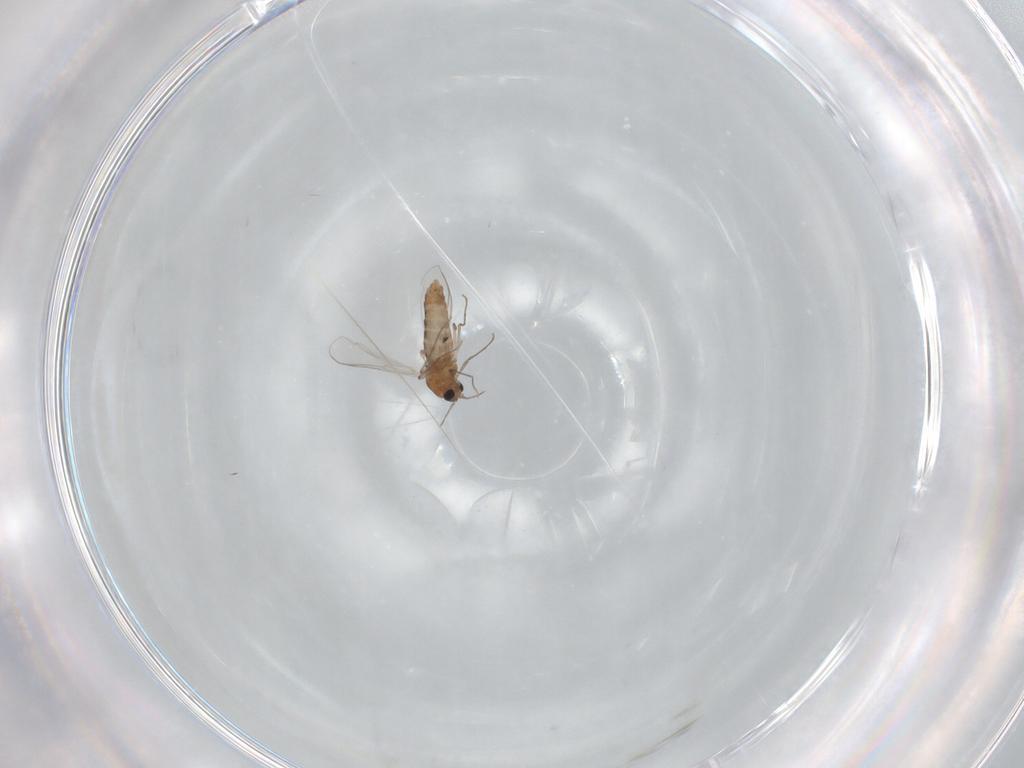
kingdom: Animalia
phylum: Arthropoda
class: Insecta
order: Diptera
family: Chironomidae
